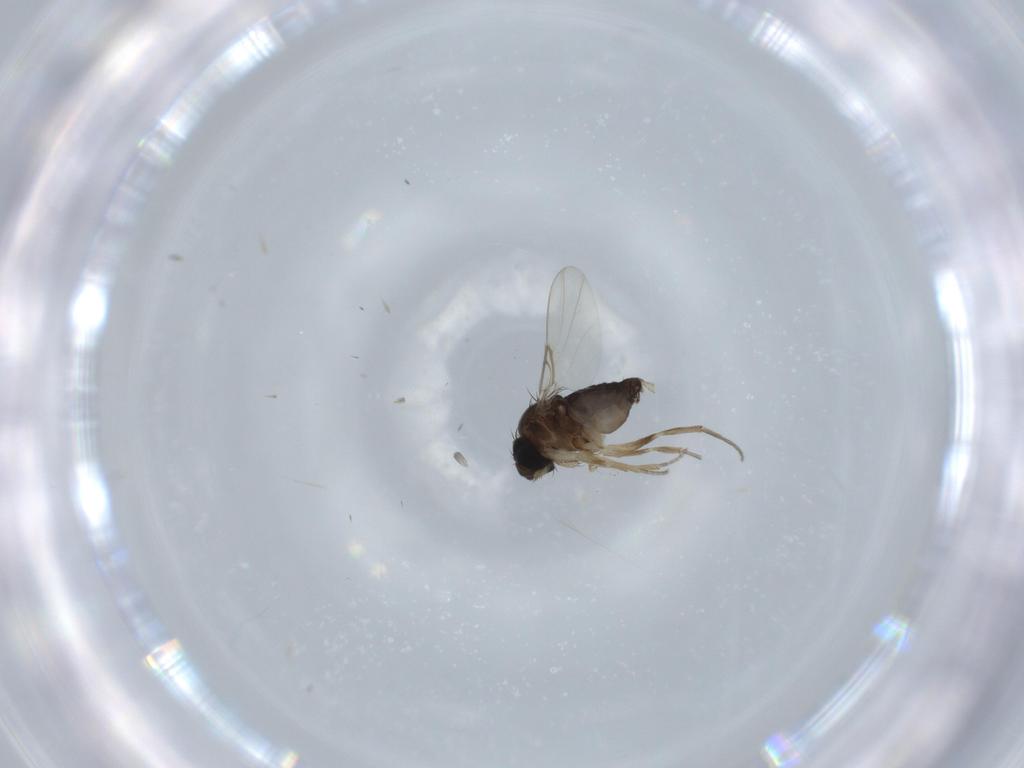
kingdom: Animalia
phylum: Arthropoda
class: Insecta
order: Diptera
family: Phoridae
